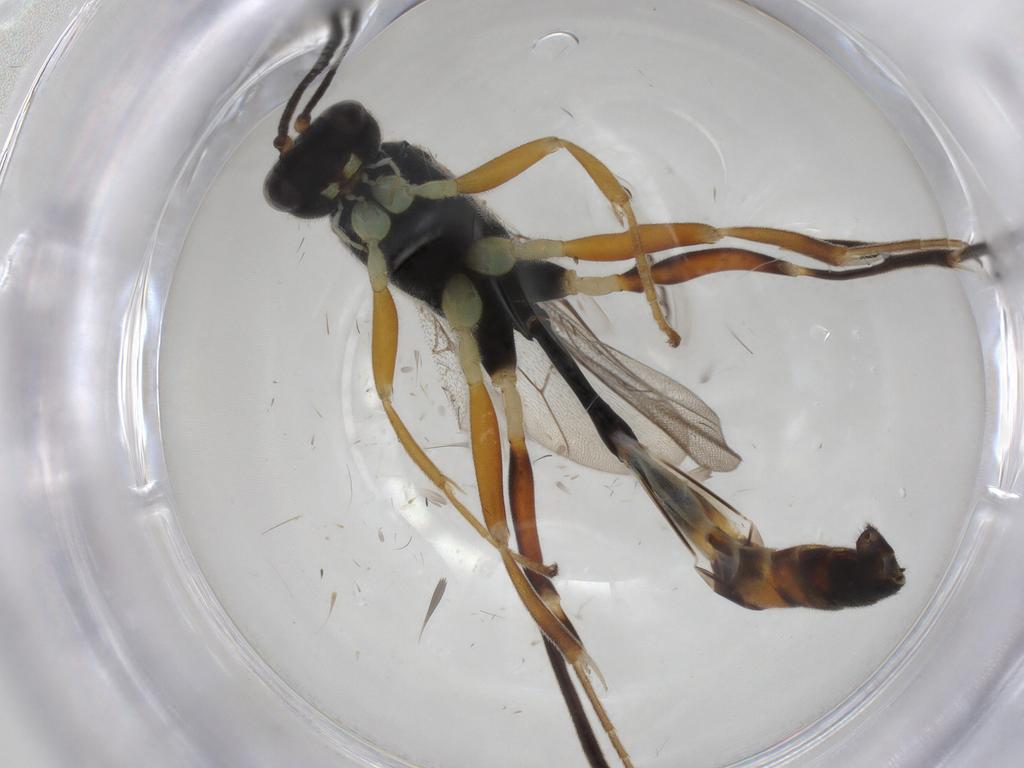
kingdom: Animalia
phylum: Arthropoda
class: Insecta
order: Hymenoptera
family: Ichneumonidae
